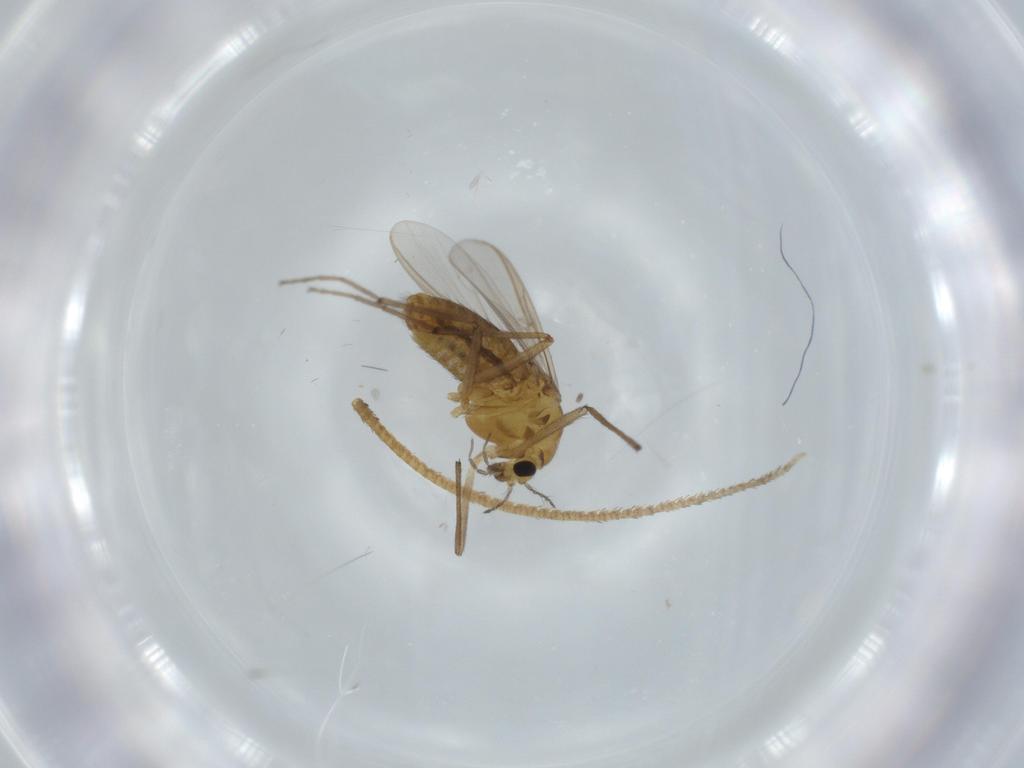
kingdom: Animalia
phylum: Arthropoda
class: Insecta
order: Diptera
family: Chironomidae
